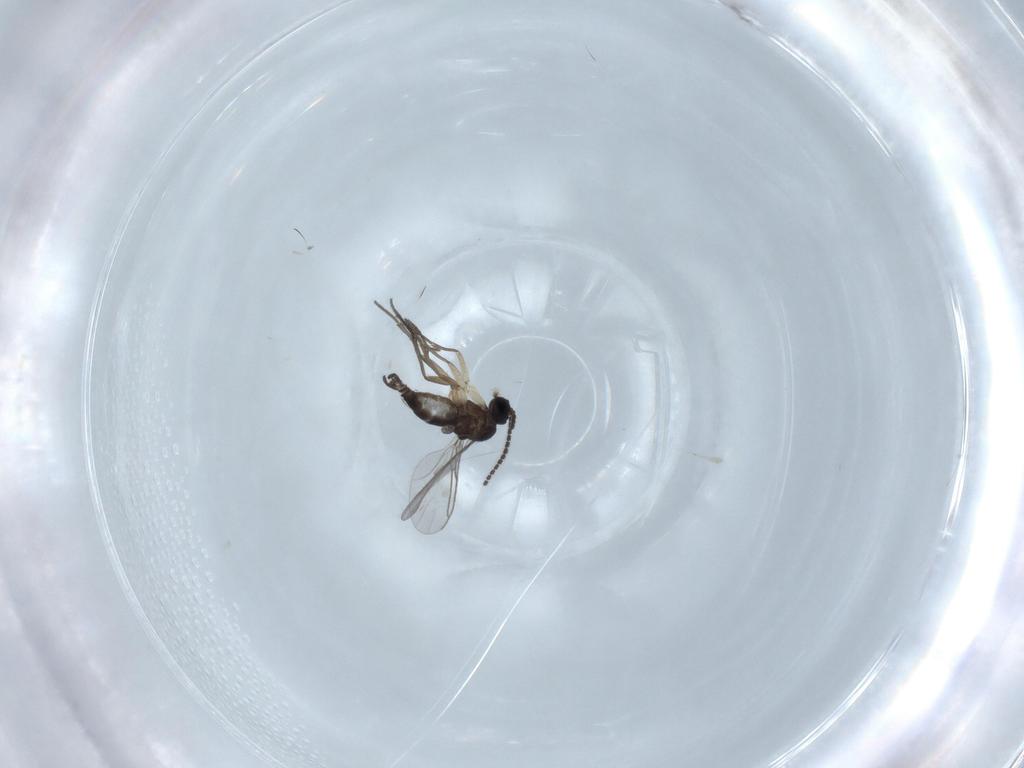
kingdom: Animalia
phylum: Arthropoda
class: Insecta
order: Diptera
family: Sciaridae
